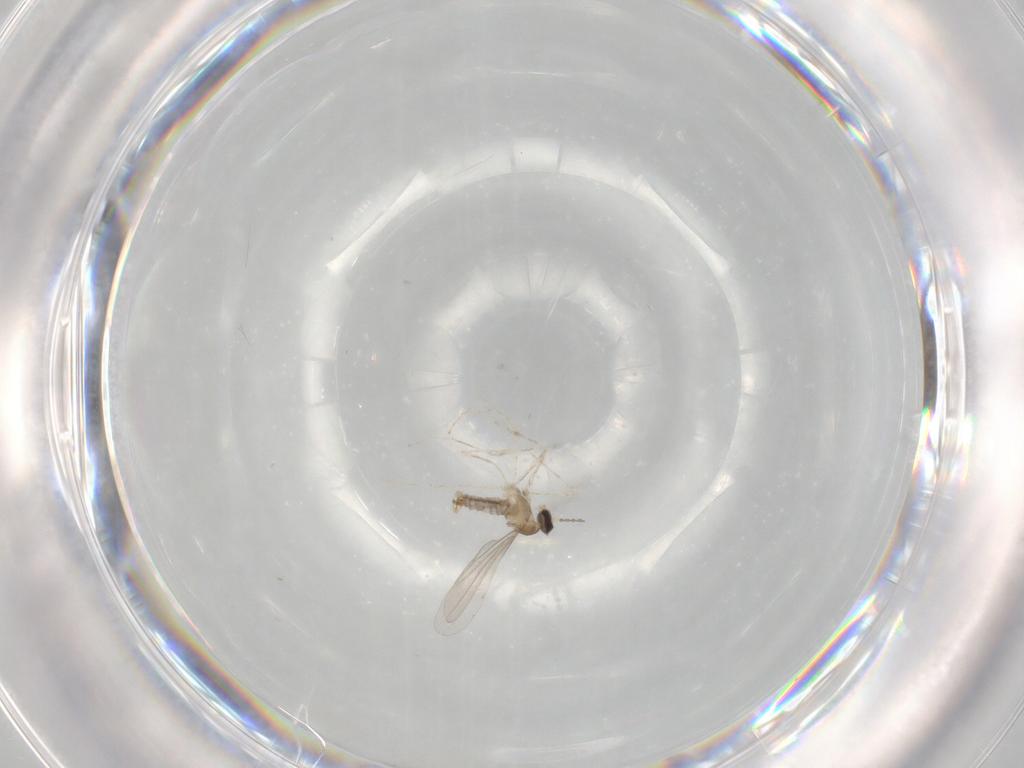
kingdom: Animalia
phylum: Arthropoda
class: Insecta
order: Diptera
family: Cecidomyiidae
